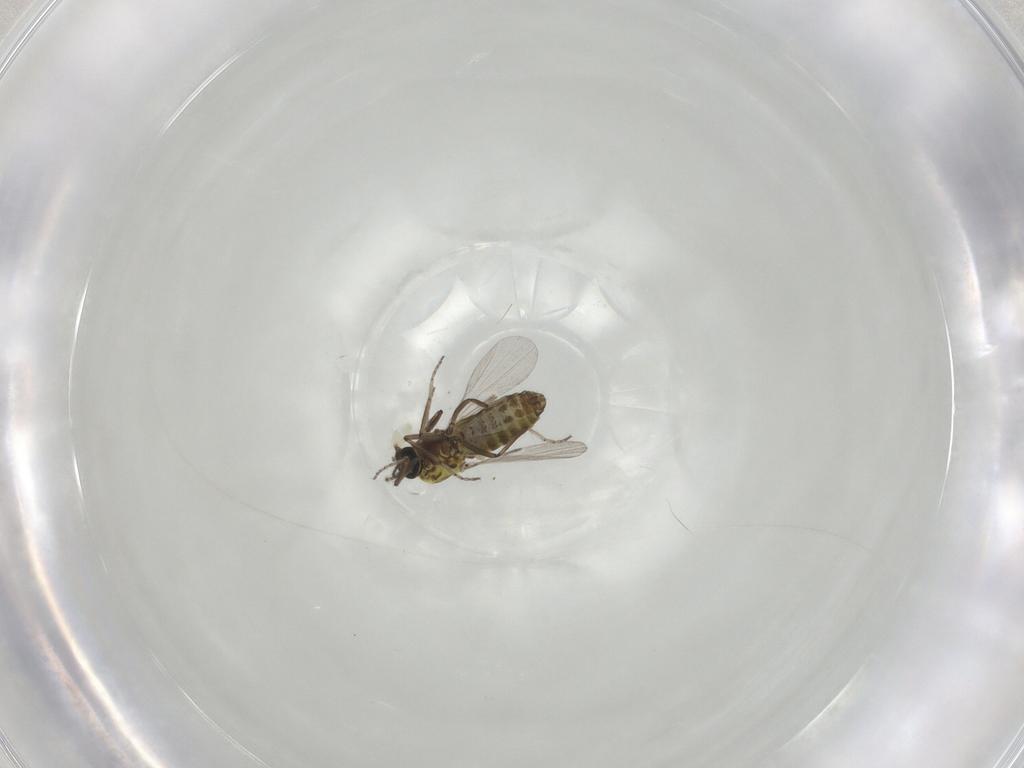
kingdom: Animalia
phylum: Arthropoda
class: Insecta
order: Diptera
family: Ceratopogonidae
